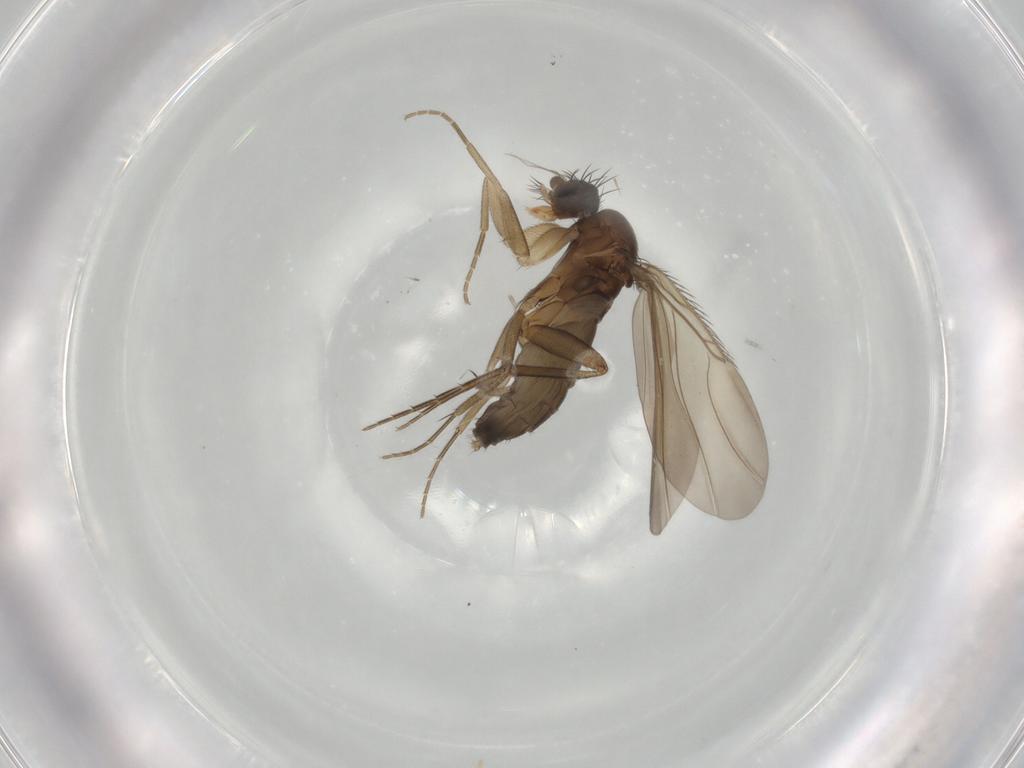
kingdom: Animalia
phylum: Arthropoda
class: Insecta
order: Diptera
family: Phoridae
